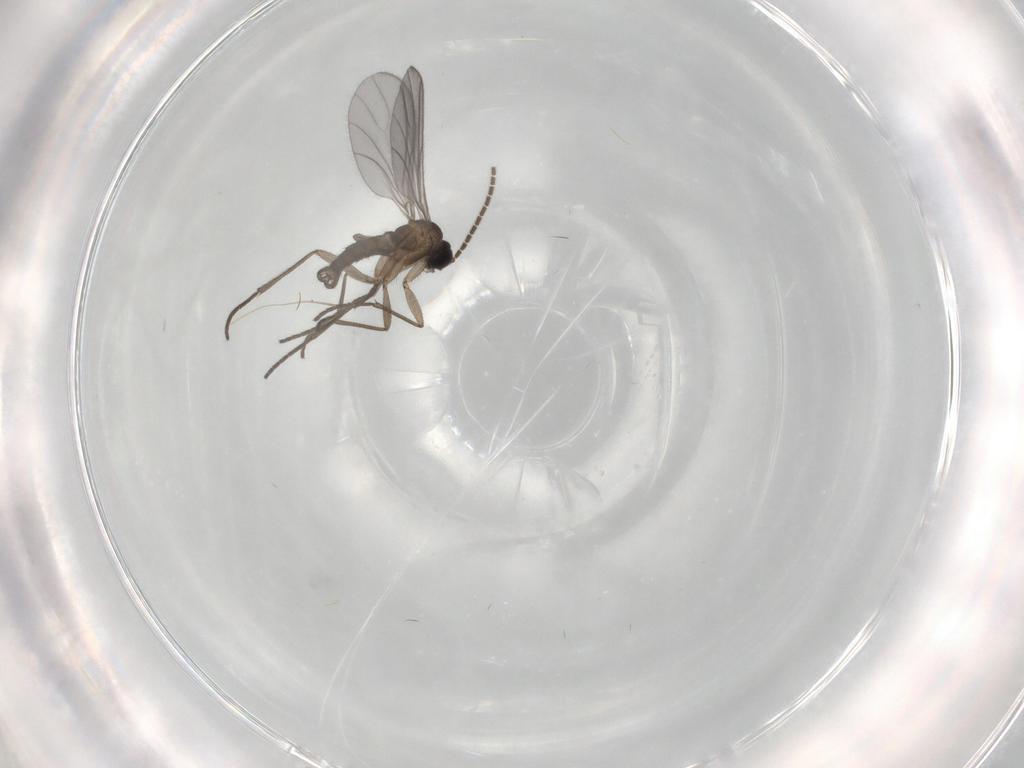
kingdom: Animalia
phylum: Arthropoda
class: Insecta
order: Diptera
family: Sciaridae
